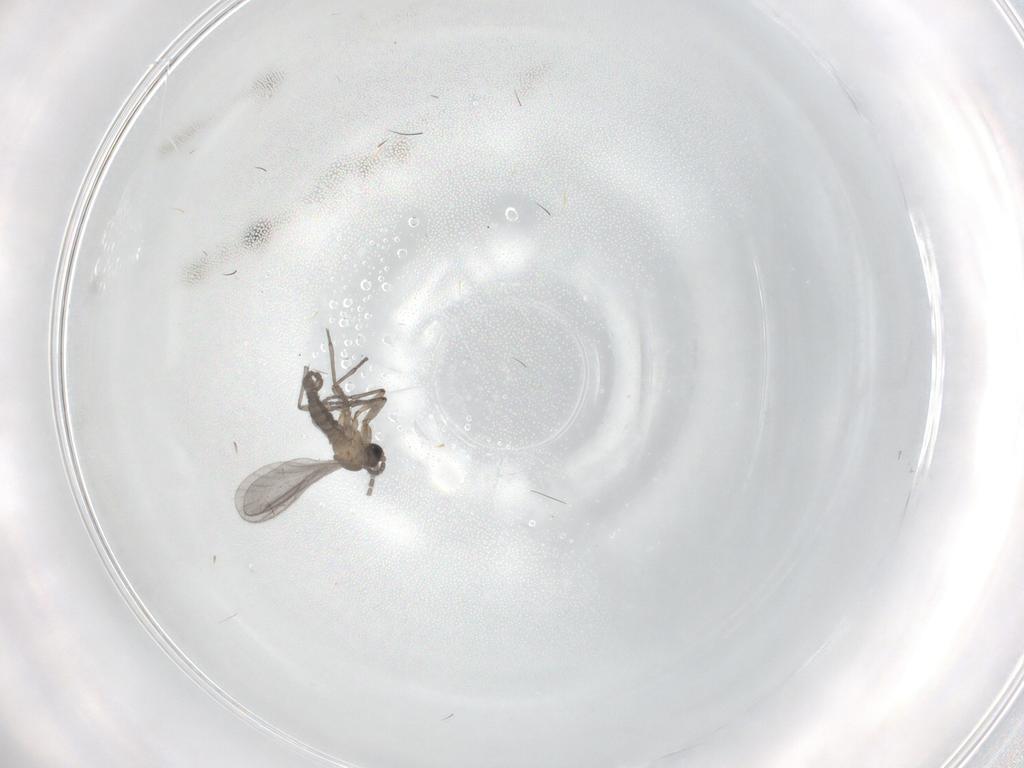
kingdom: Animalia
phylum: Arthropoda
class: Insecta
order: Diptera
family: Sciaridae
